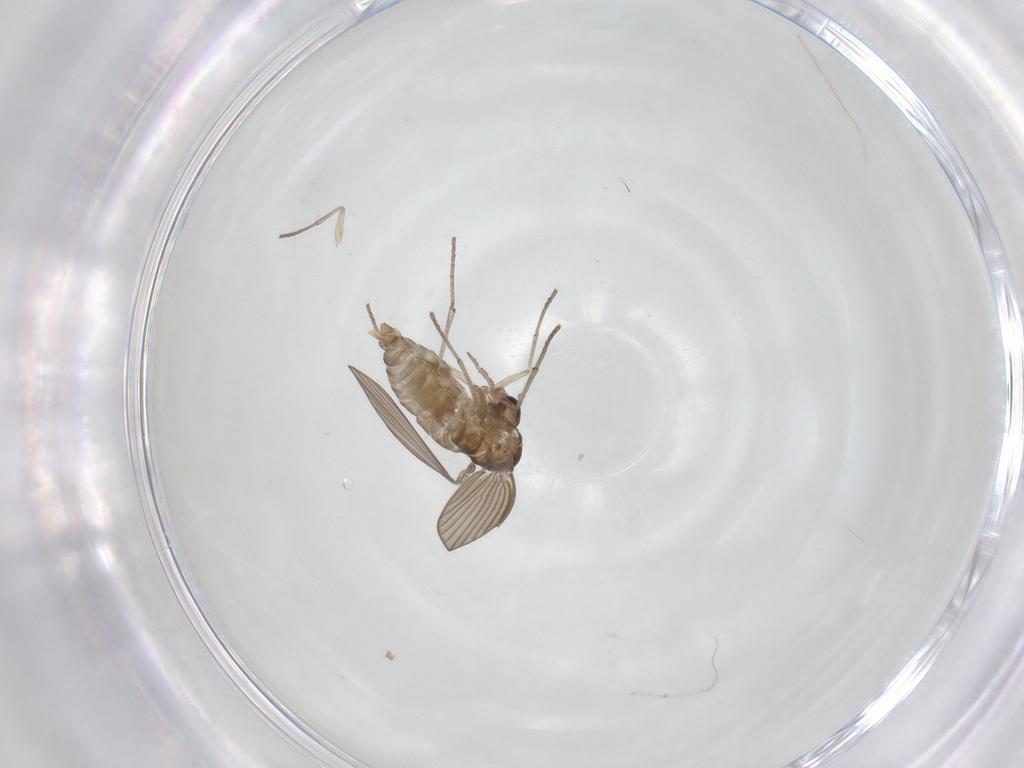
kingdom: Animalia
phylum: Arthropoda
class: Insecta
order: Diptera
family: Psychodidae
